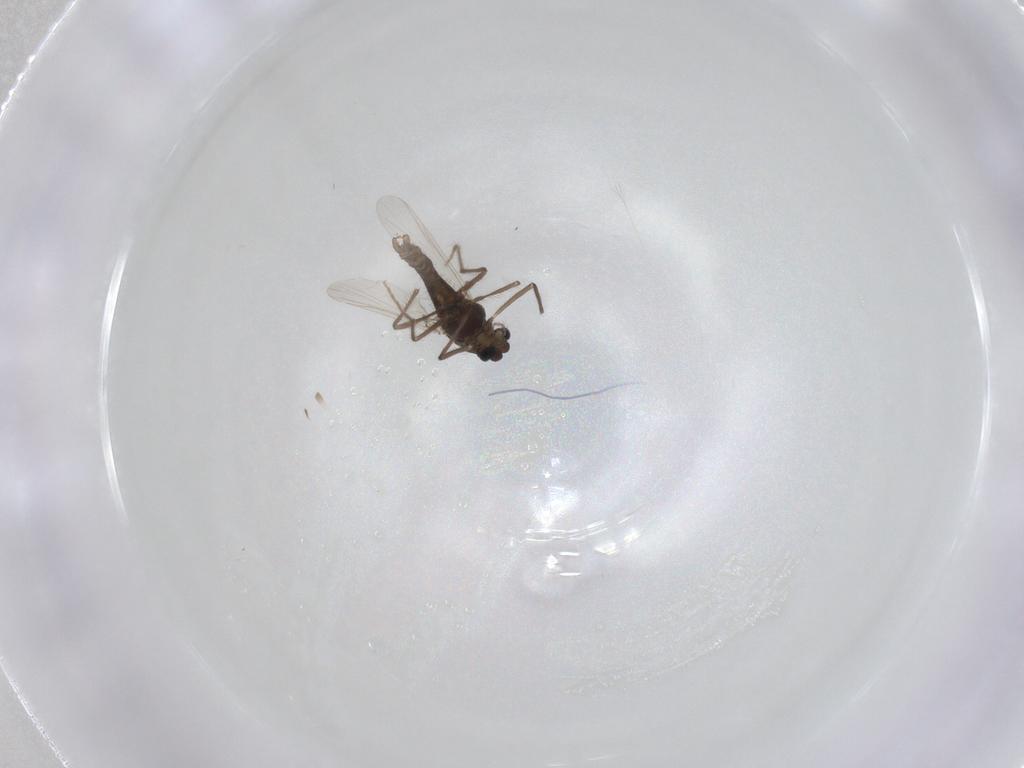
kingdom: Animalia
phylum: Arthropoda
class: Insecta
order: Diptera
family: Chironomidae
